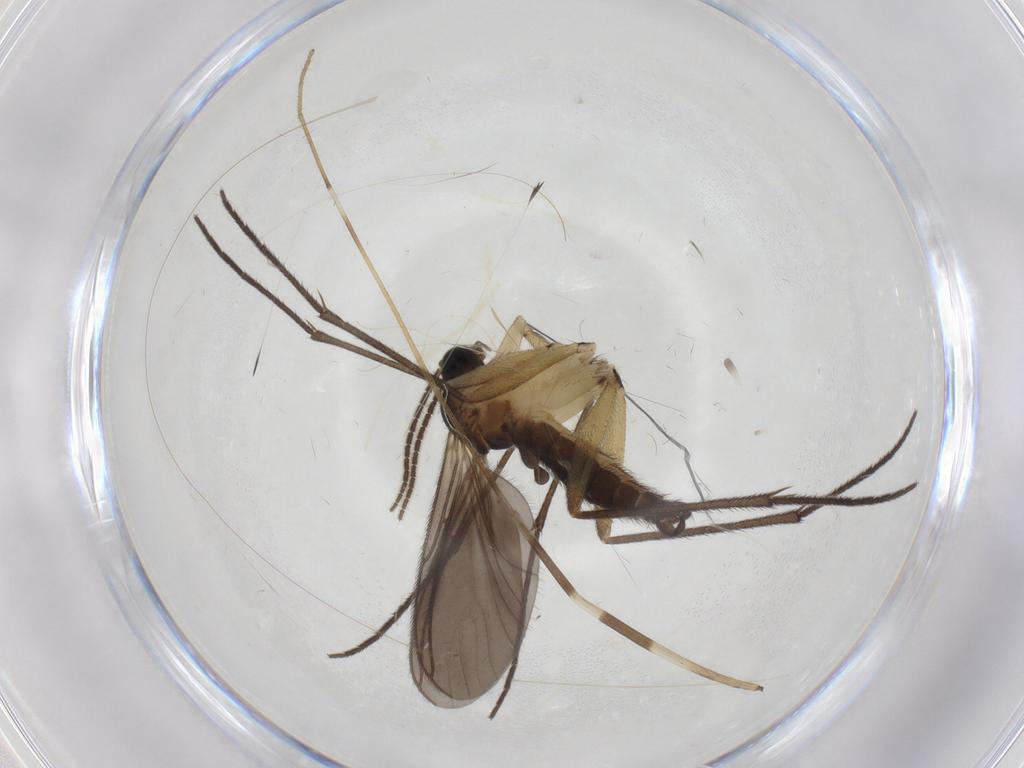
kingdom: Animalia
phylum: Arthropoda
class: Insecta
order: Diptera
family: Sciaridae
